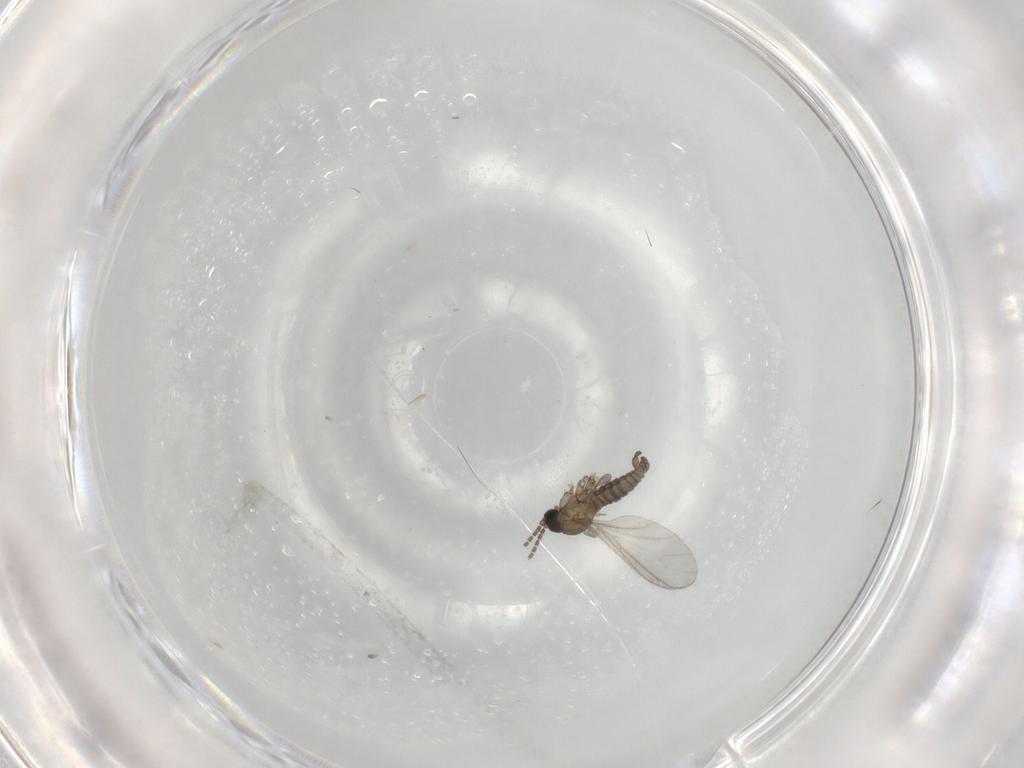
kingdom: Animalia
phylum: Arthropoda
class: Insecta
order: Diptera
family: Sciaridae
